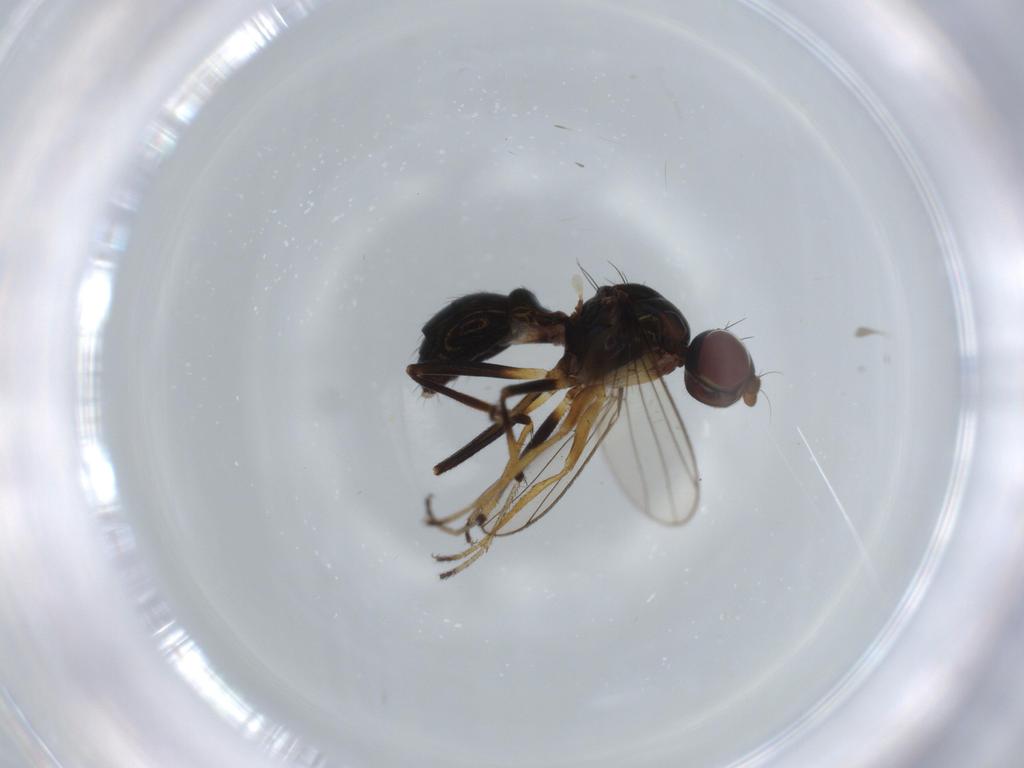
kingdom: Animalia
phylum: Arthropoda
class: Insecta
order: Diptera
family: Sepsidae
